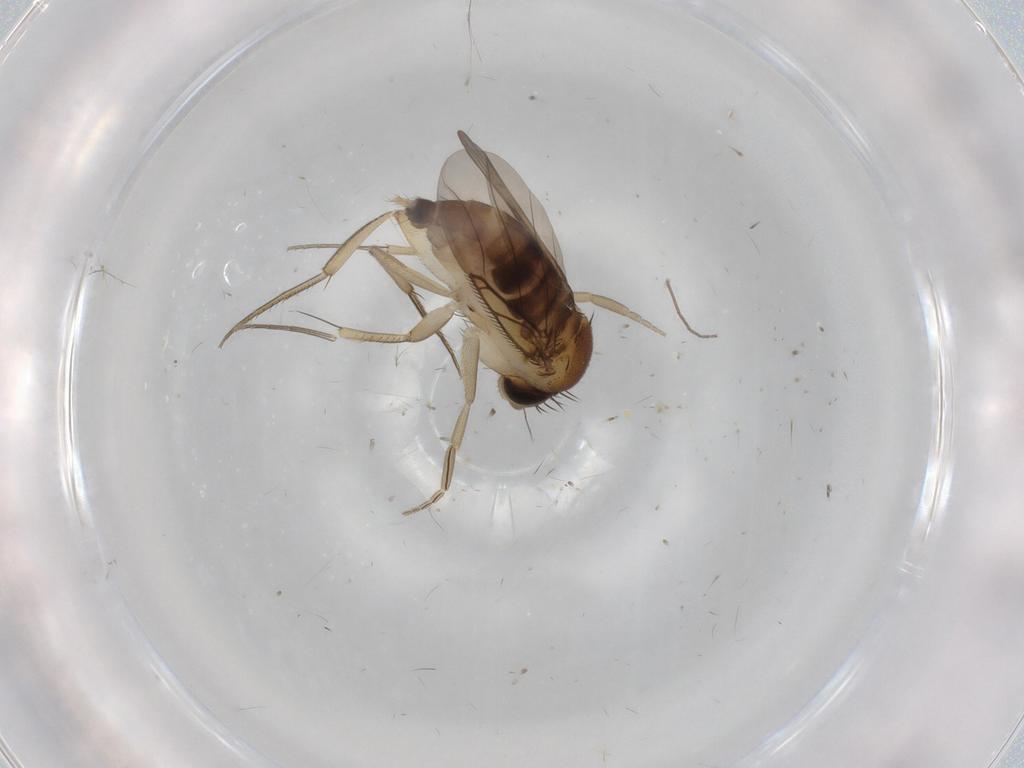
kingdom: Animalia
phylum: Arthropoda
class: Insecta
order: Diptera
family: Phoridae
